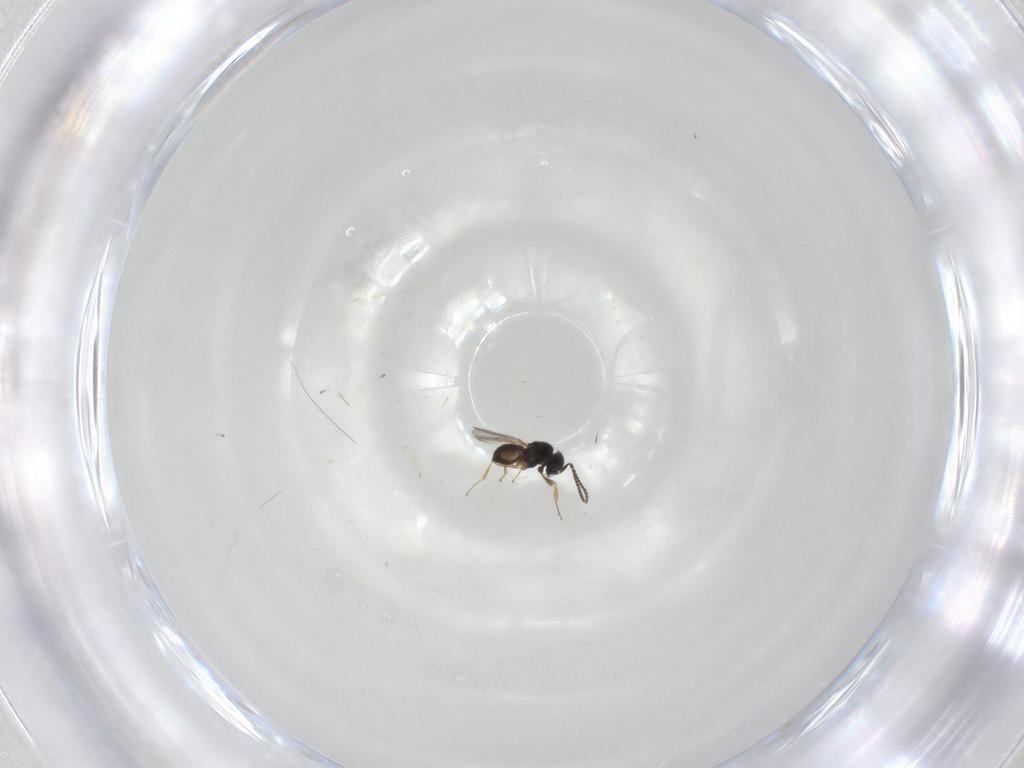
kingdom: Animalia
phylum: Arthropoda
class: Insecta
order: Hymenoptera
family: Scelionidae
